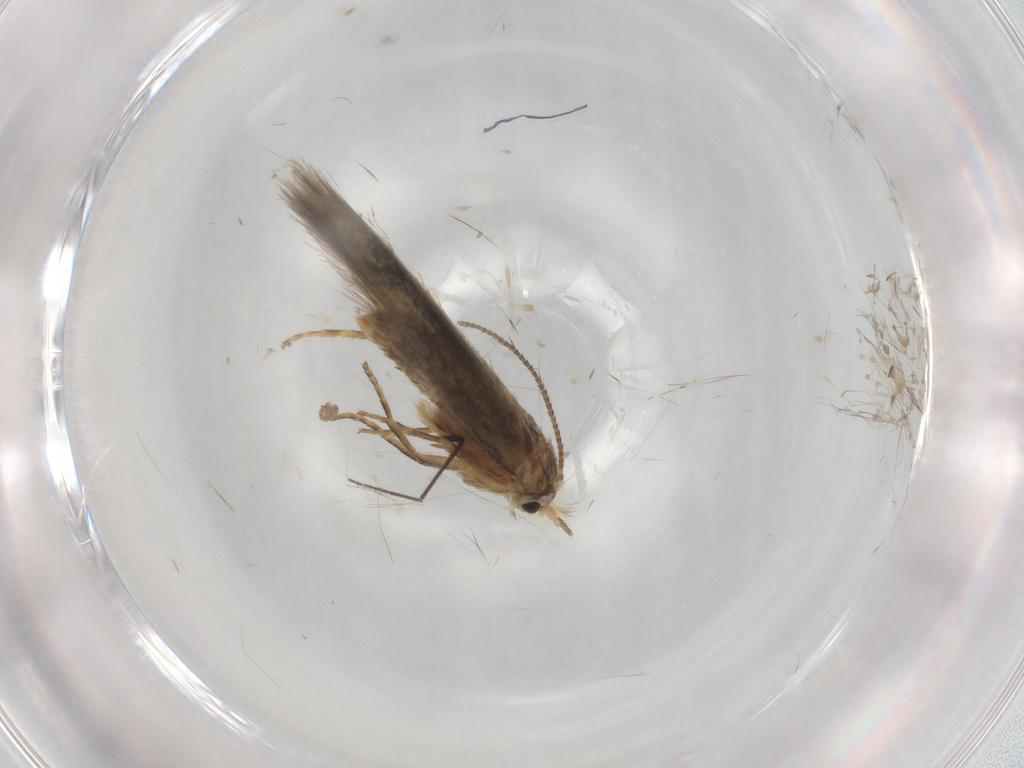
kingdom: Animalia
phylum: Arthropoda
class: Insecta
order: Lepidoptera
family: Nepticulidae
